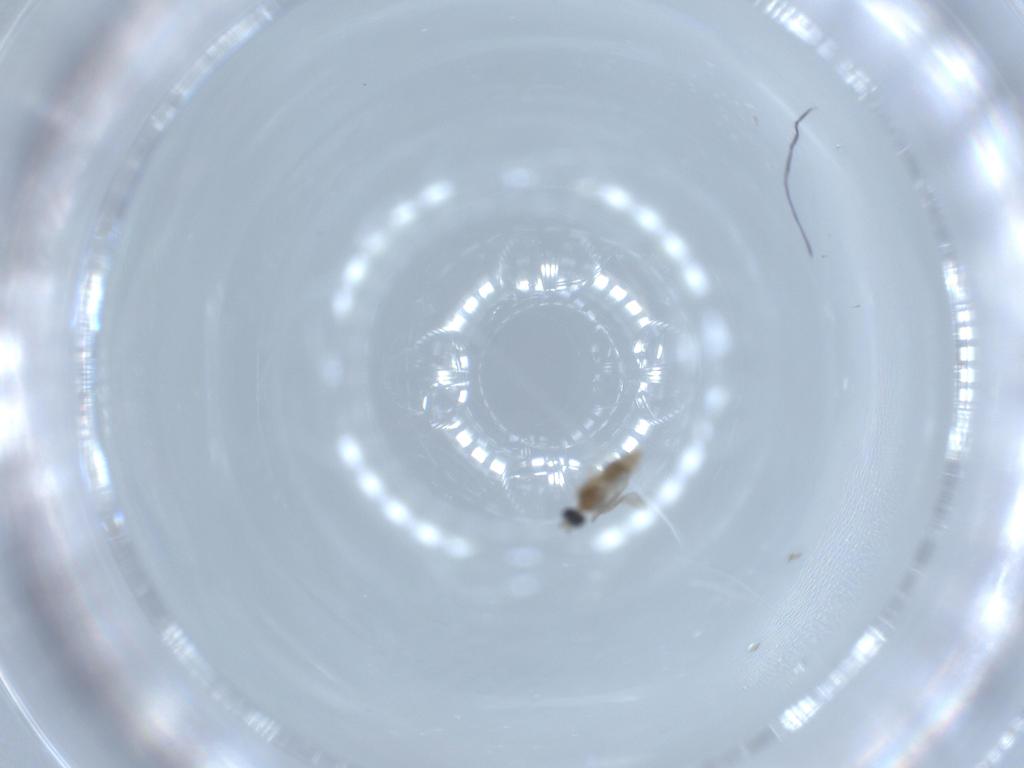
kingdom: Animalia
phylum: Arthropoda
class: Insecta
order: Diptera
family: Cecidomyiidae
